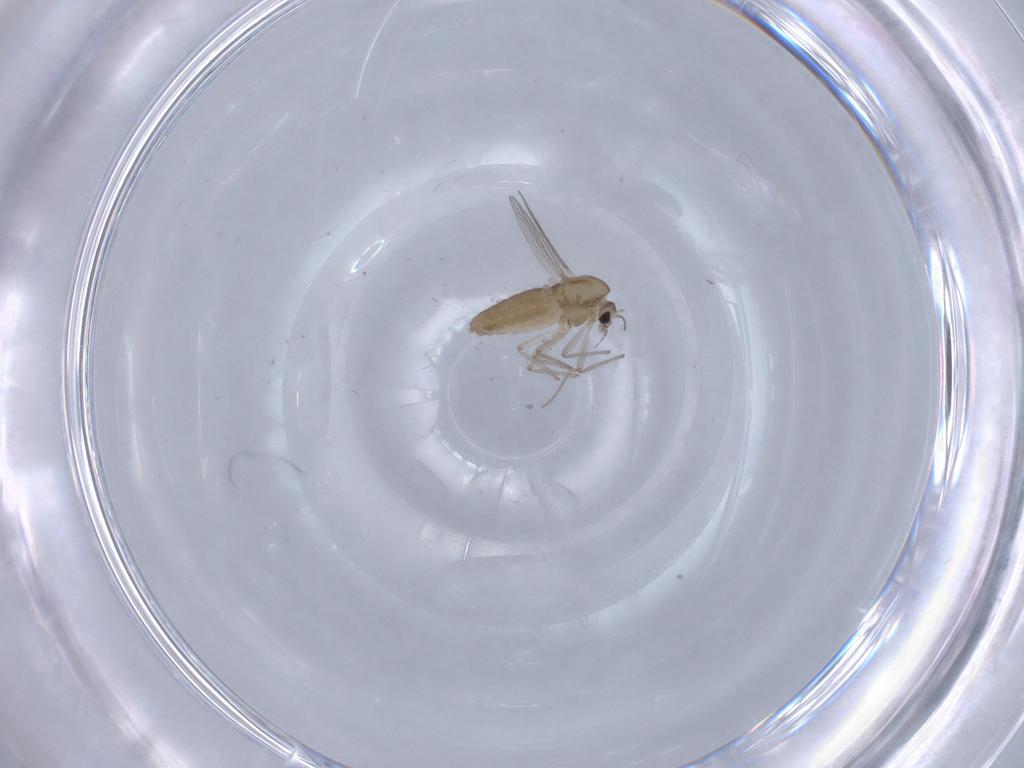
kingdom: Animalia
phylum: Arthropoda
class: Insecta
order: Diptera
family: Chironomidae
